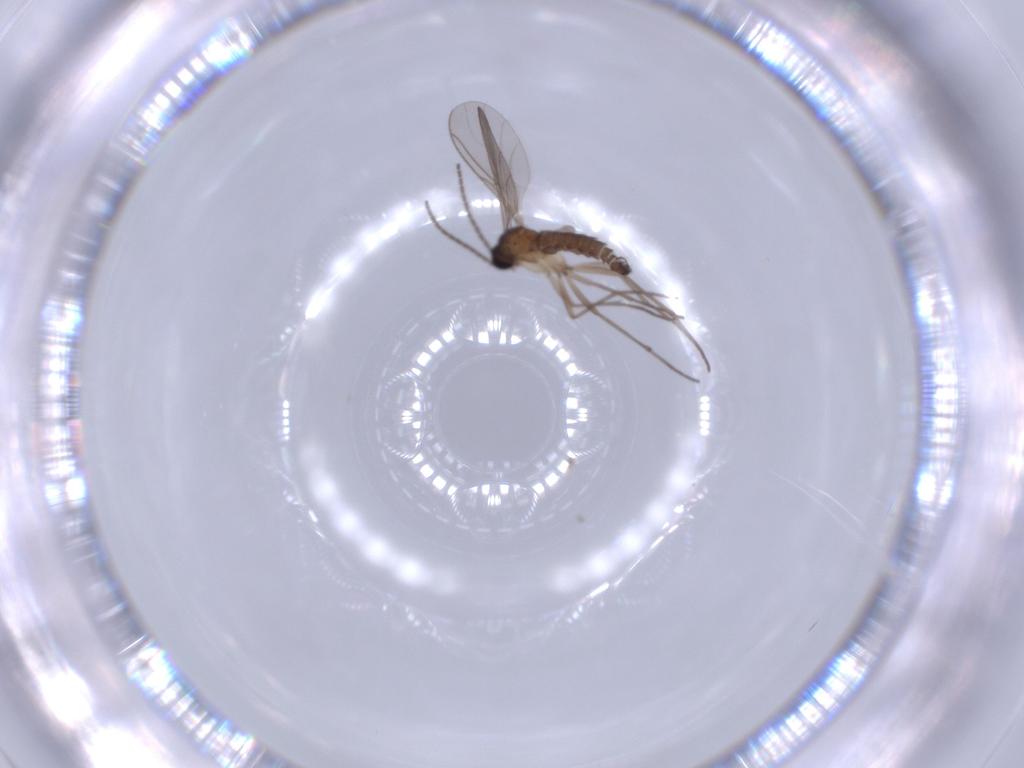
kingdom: Animalia
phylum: Arthropoda
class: Insecta
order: Diptera
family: Sciaridae
